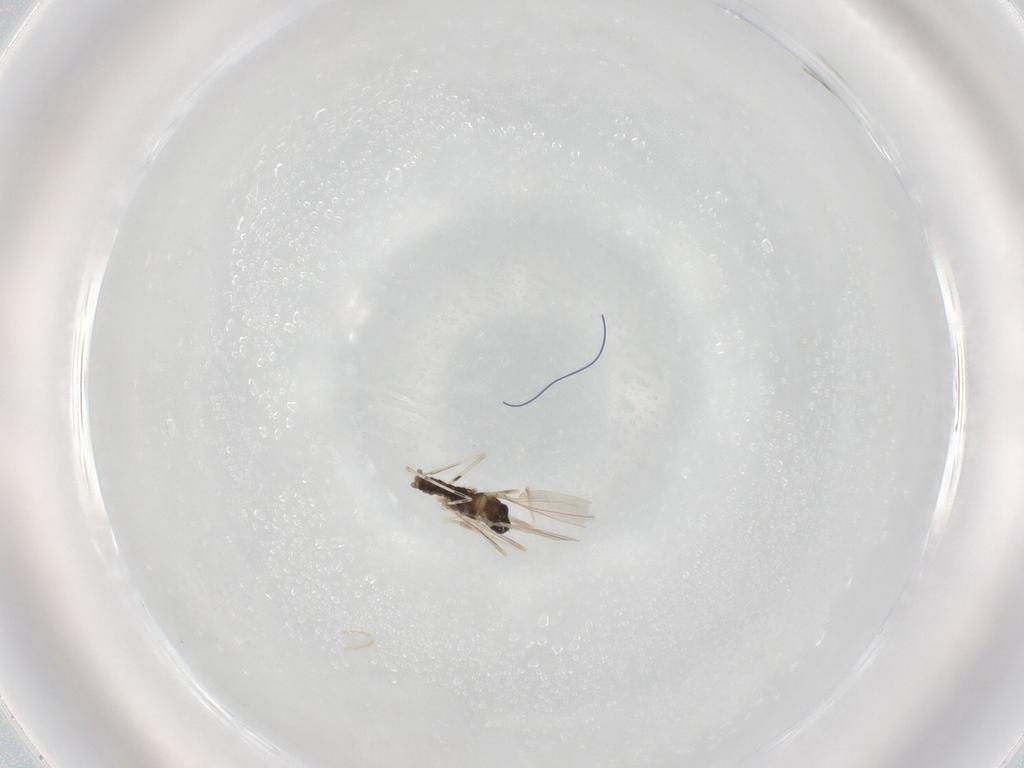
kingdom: Animalia
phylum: Arthropoda
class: Insecta
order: Diptera
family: Cecidomyiidae
